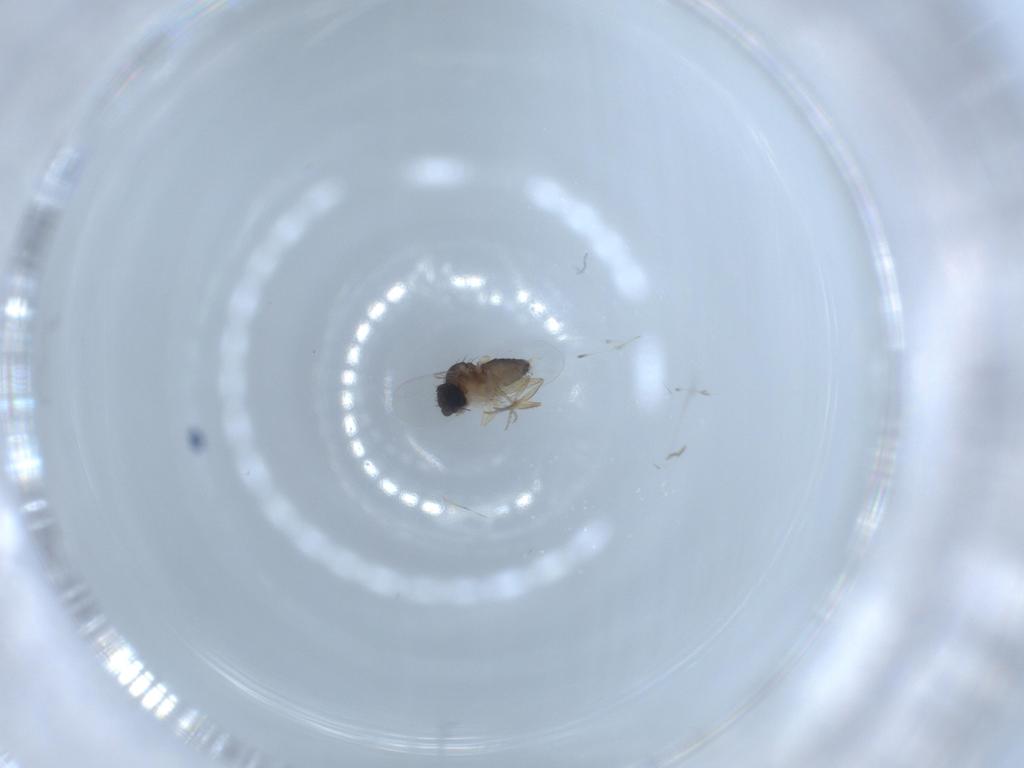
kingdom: Animalia
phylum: Arthropoda
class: Insecta
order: Diptera
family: Phoridae
